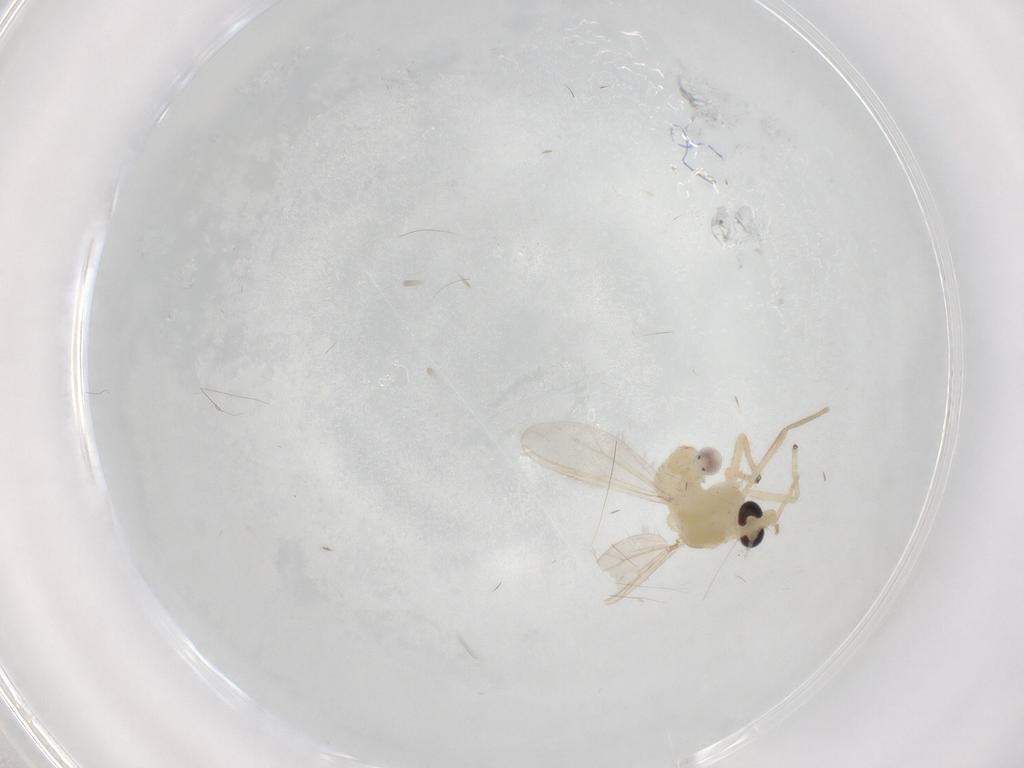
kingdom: Animalia
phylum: Arthropoda
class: Insecta
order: Diptera
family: Chironomidae
